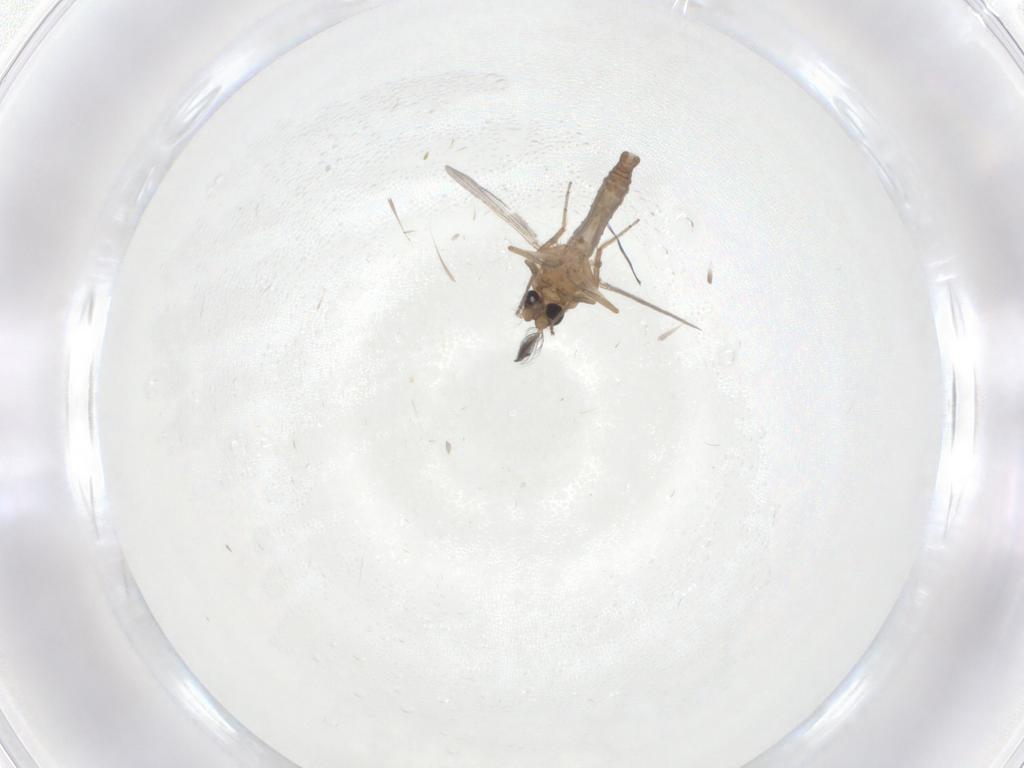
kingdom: Animalia
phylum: Arthropoda
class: Insecta
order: Diptera
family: Ceratopogonidae
